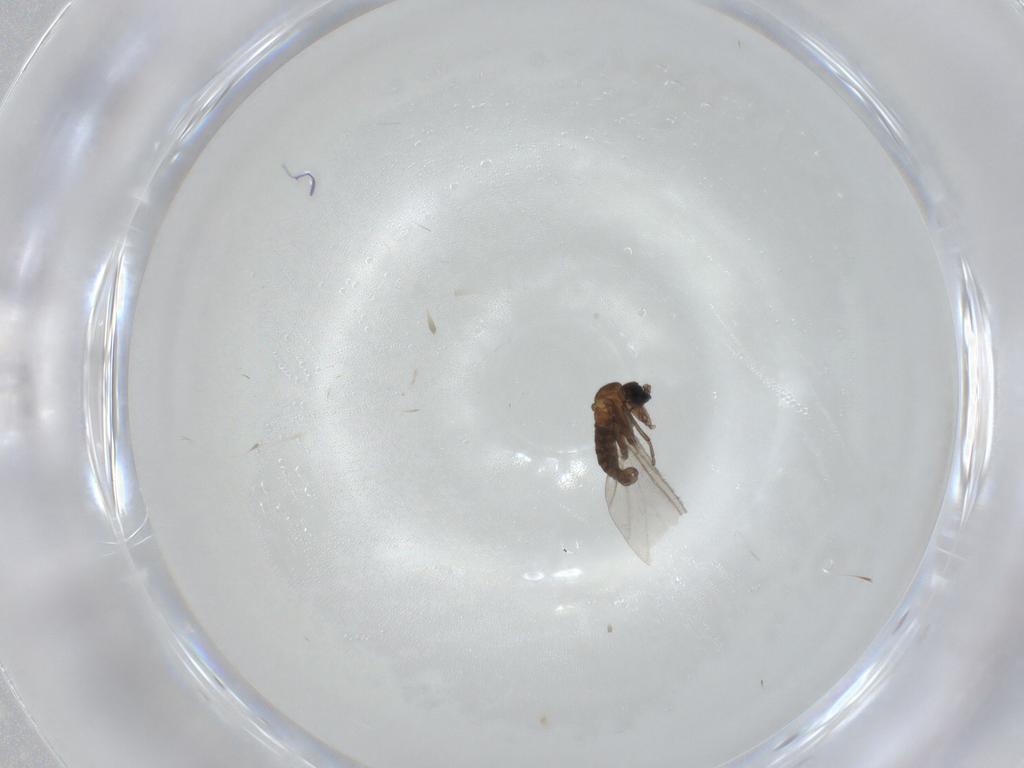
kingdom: Animalia
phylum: Arthropoda
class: Insecta
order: Diptera
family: Sciaridae
